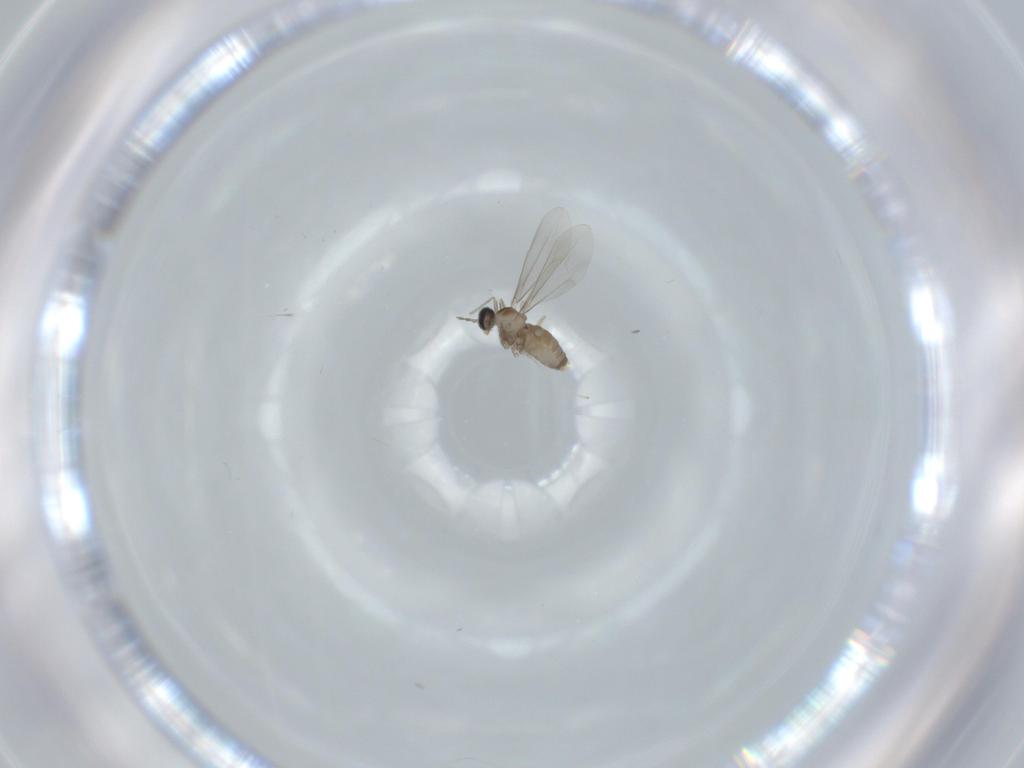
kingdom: Animalia
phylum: Arthropoda
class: Insecta
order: Diptera
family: Cecidomyiidae
